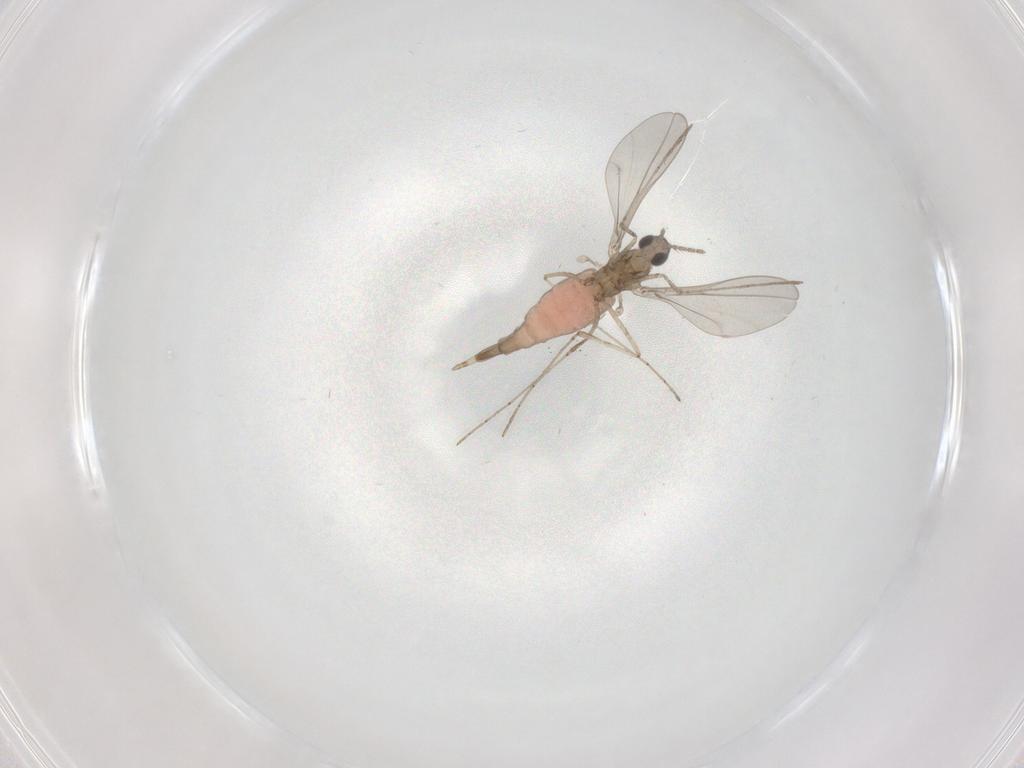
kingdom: Animalia
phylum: Arthropoda
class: Insecta
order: Diptera
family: Cecidomyiidae
